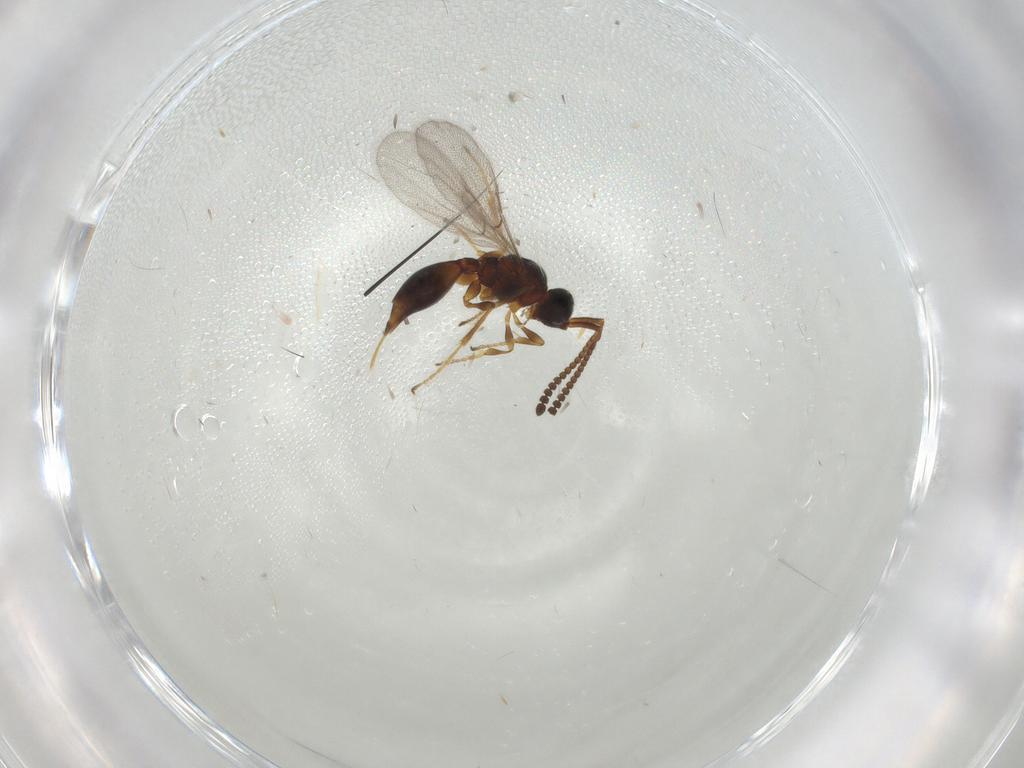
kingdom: Animalia
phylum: Arthropoda
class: Insecta
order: Hymenoptera
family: Diapriidae
